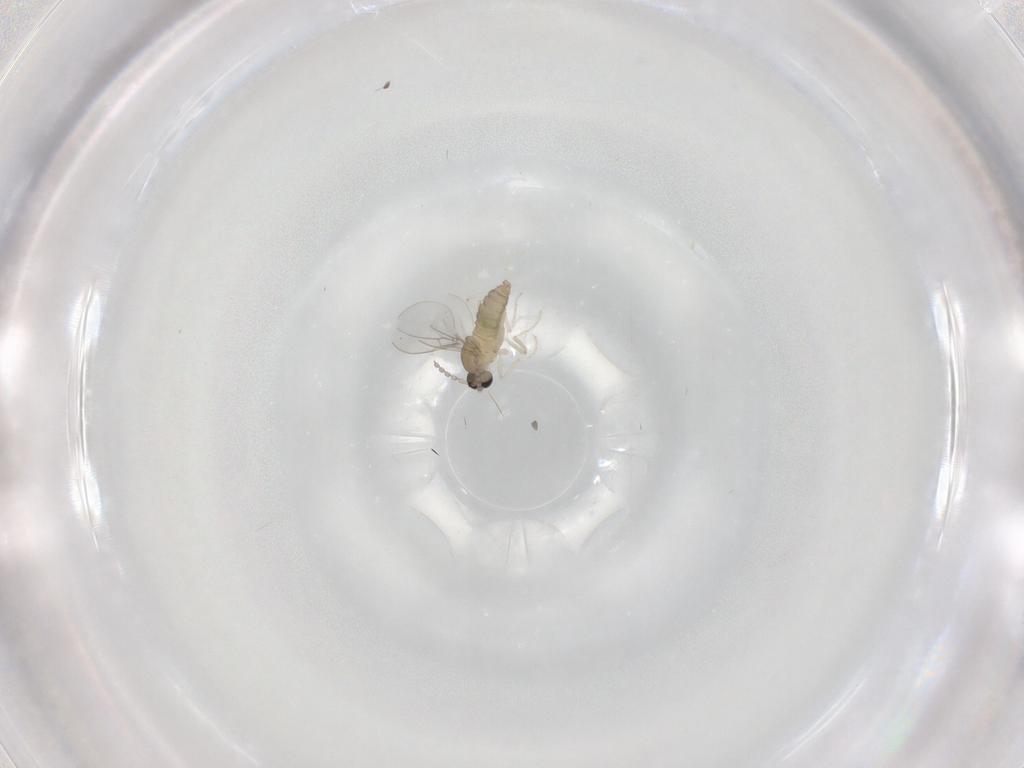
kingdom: Animalia
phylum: Arthropoda
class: Insecta
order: Diptera
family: Cecidomyiidae
